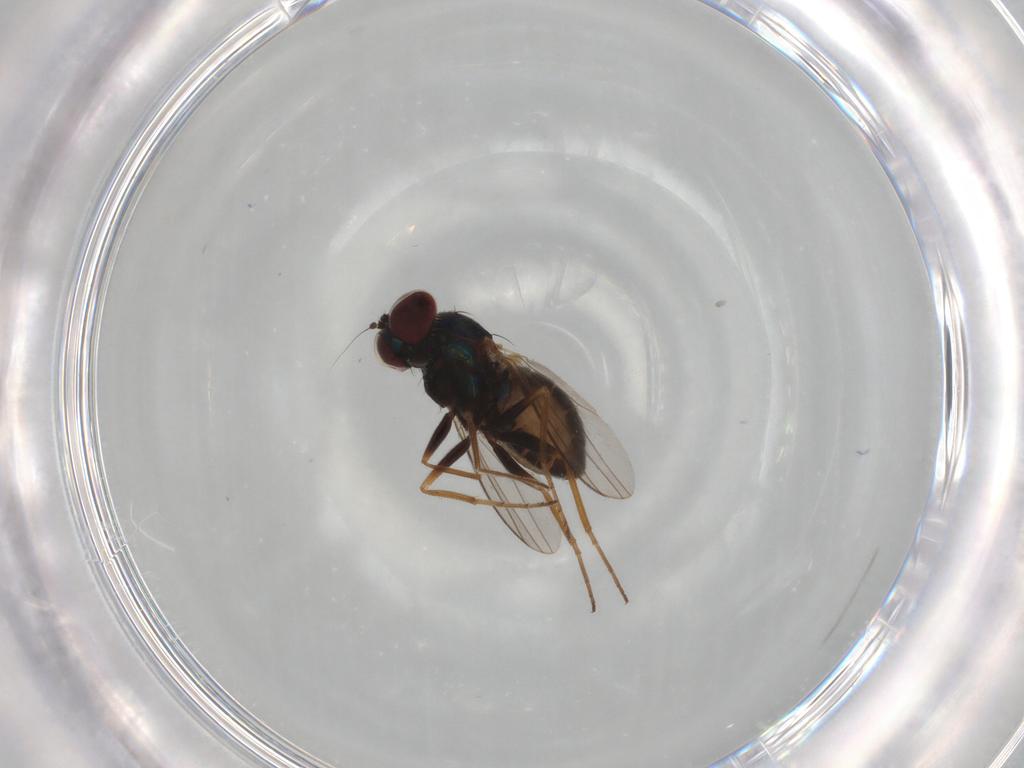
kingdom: Animalia
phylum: Arthropoda
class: Insecta
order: Diptera
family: Dolichopodidae
